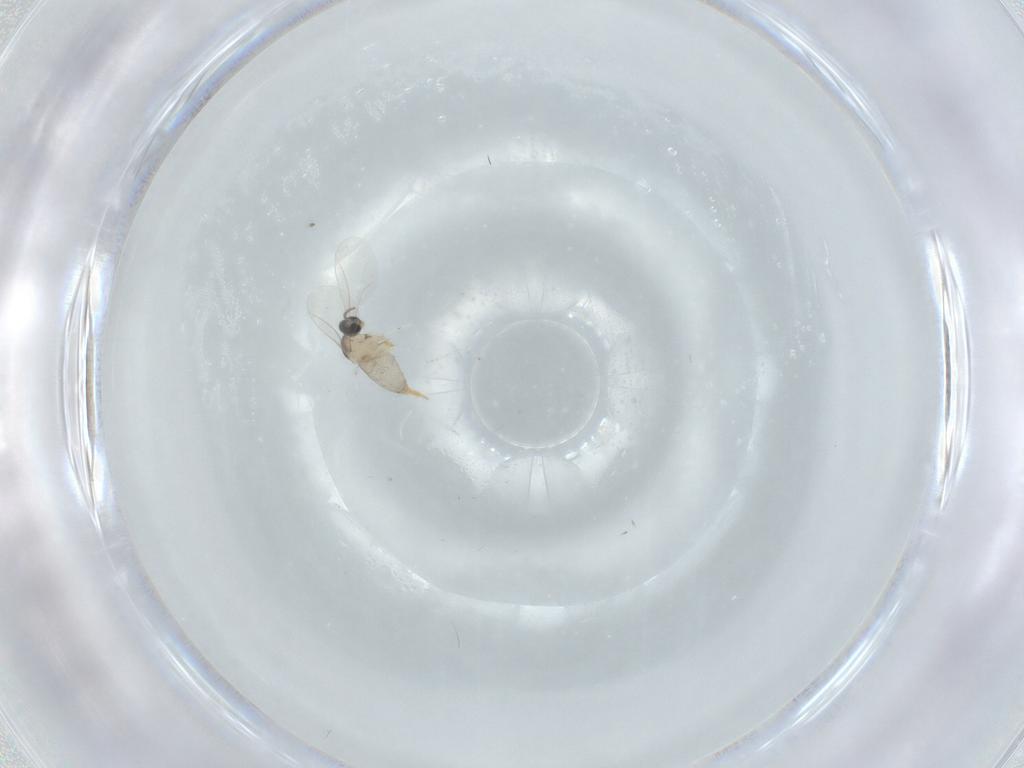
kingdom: Animalia
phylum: Arthropoda
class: Insecta
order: Diptera
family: Cecidomyiidae
